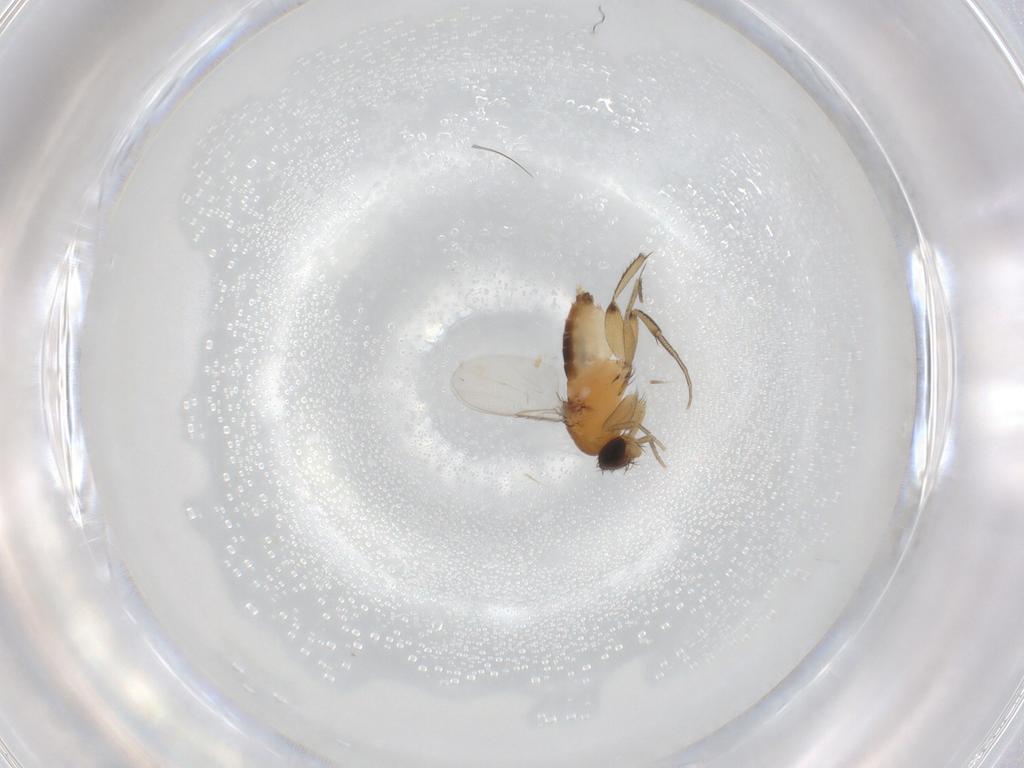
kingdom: Animalia
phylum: Arthropoda
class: Insecta
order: Diptera
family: Phoridae
